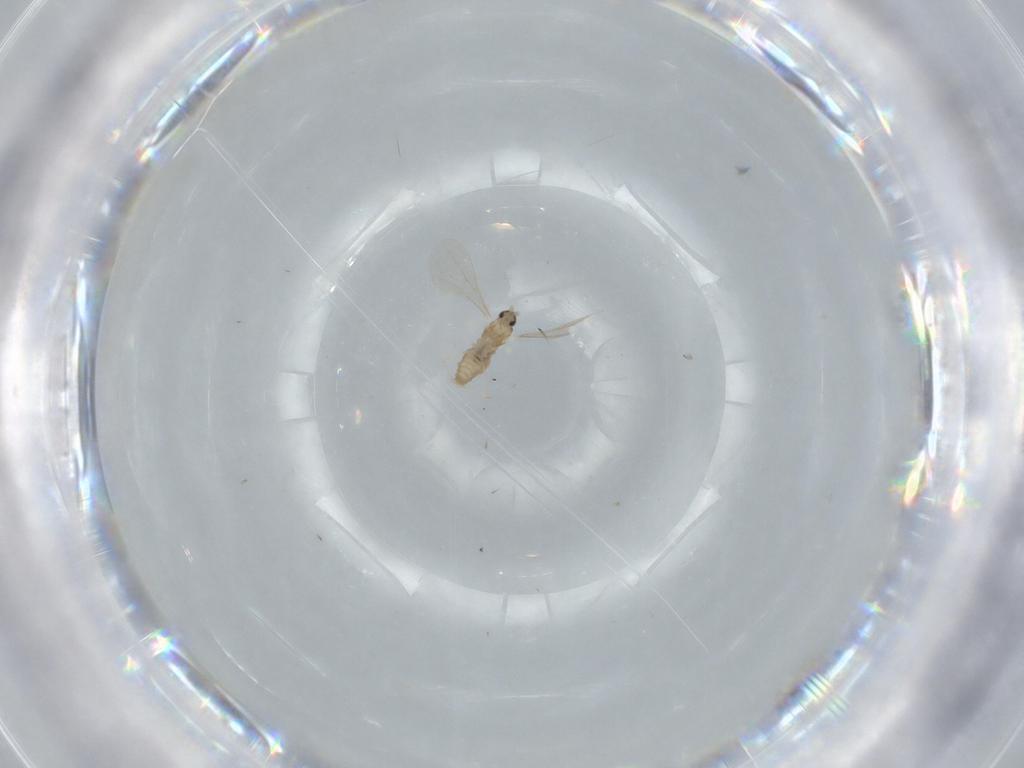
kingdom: Animalia
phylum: Arthropoda
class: Insecta
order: Diptera
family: Cecidomyiidae
